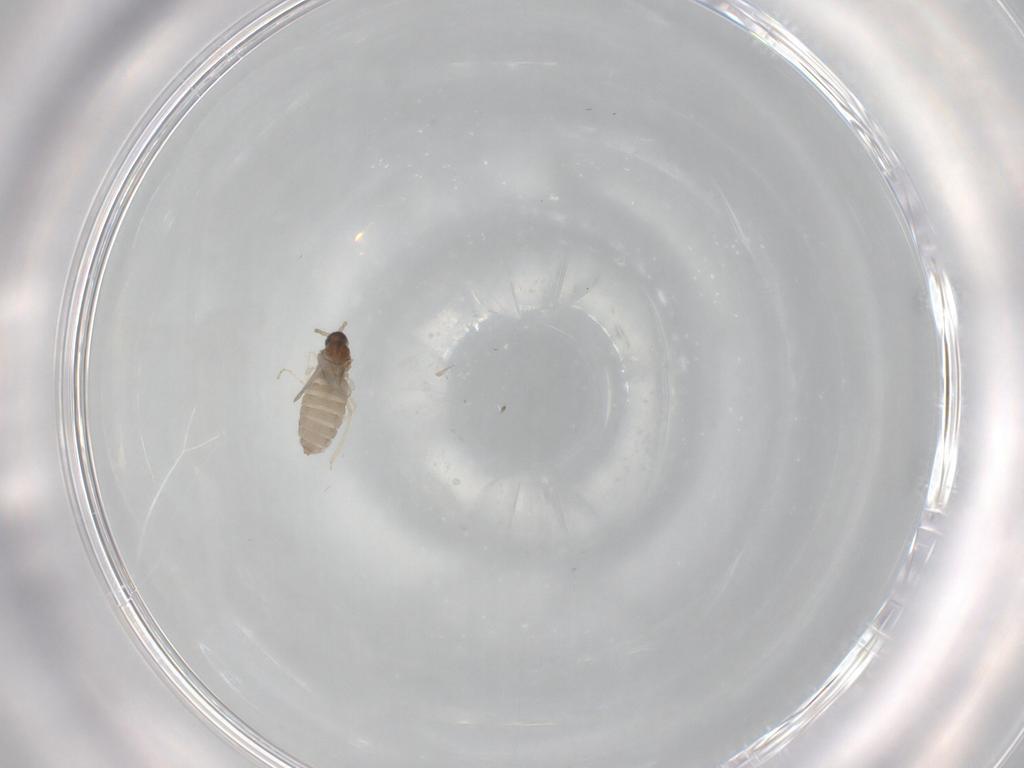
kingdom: Animalia
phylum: Arthropoda
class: Insecta
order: Diptera
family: Cecidomyiidae
